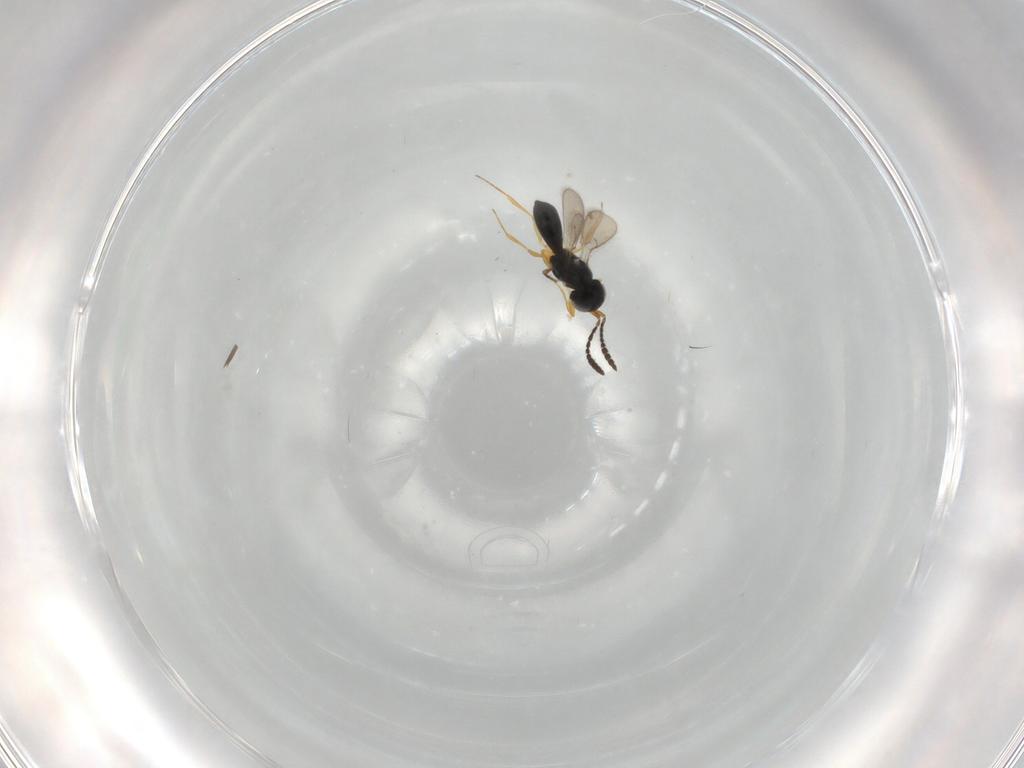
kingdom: Animalia
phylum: Arthropoda
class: Insecta
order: Hymenoptera
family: Scelionidae
